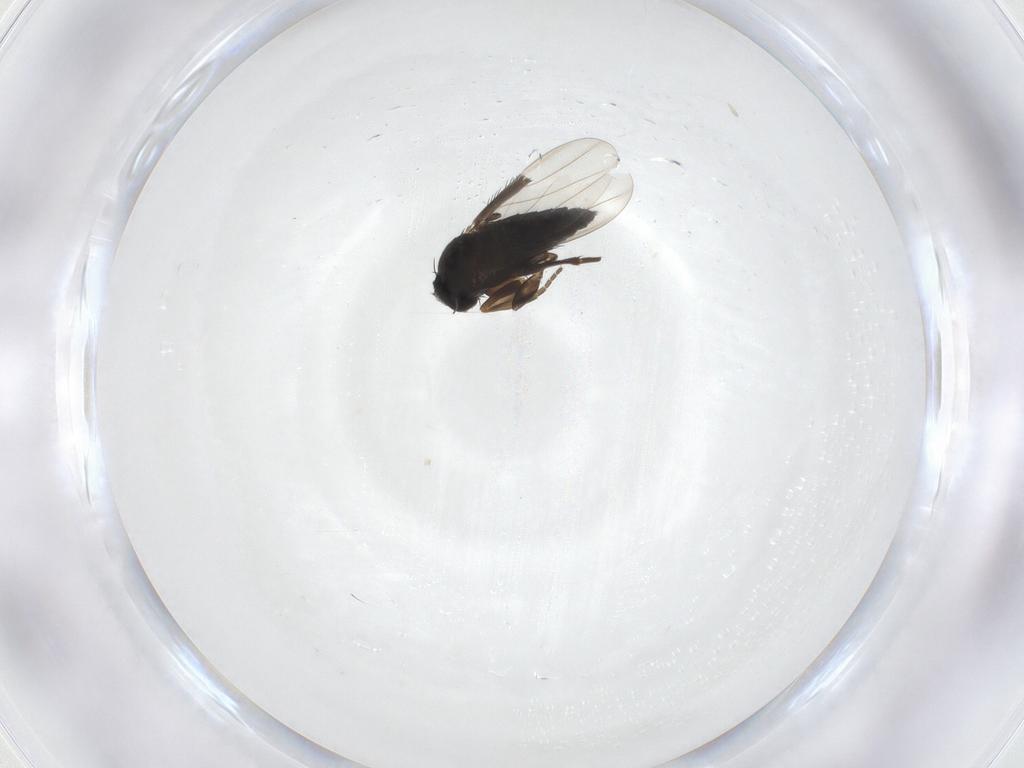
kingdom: Animalia
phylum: Arthropoda
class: Insecta
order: Diptera
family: Phoridae
